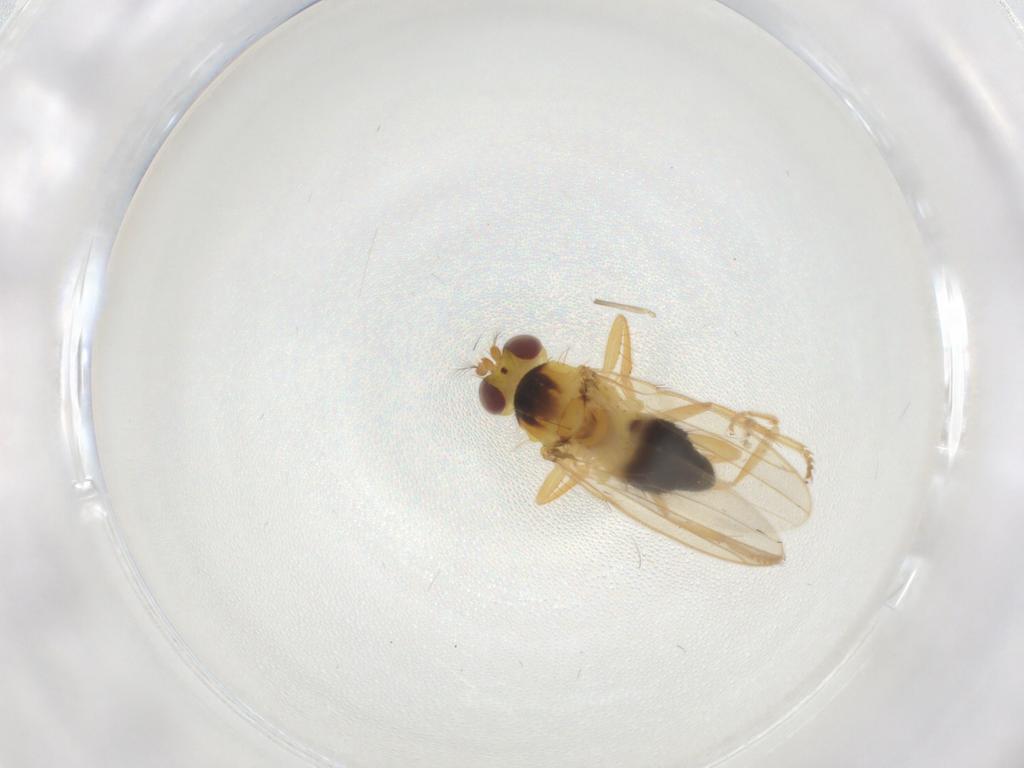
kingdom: Animalia
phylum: Arthropoda
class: Insecta
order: Diptera
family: Periscelididae
